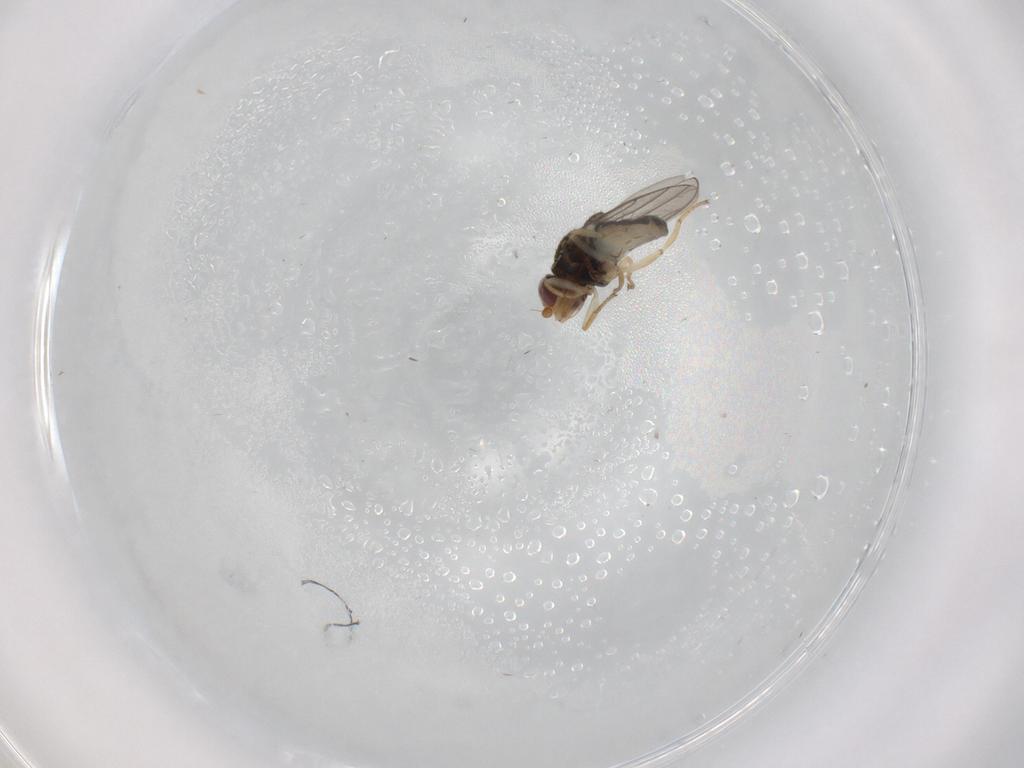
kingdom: Animalia
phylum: Arthropoda
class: Insecta
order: Diptera
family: Chloropidae
